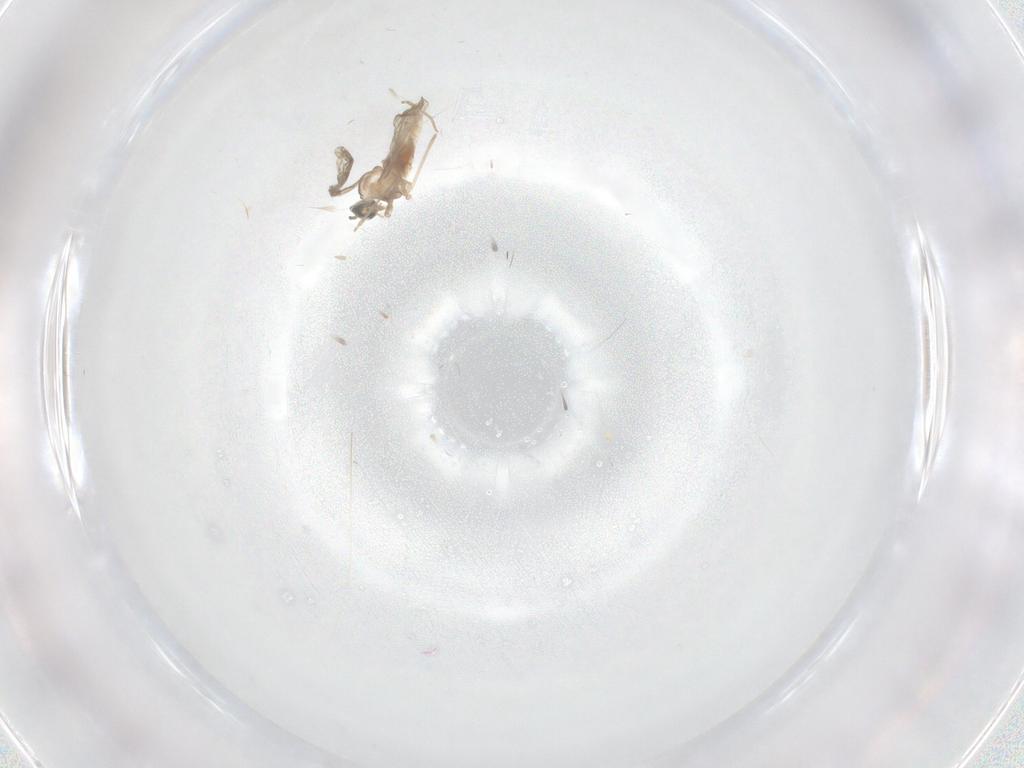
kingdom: Animalia
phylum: Arthropoda
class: Insecta
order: Diptera
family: Cecidomyiidae
